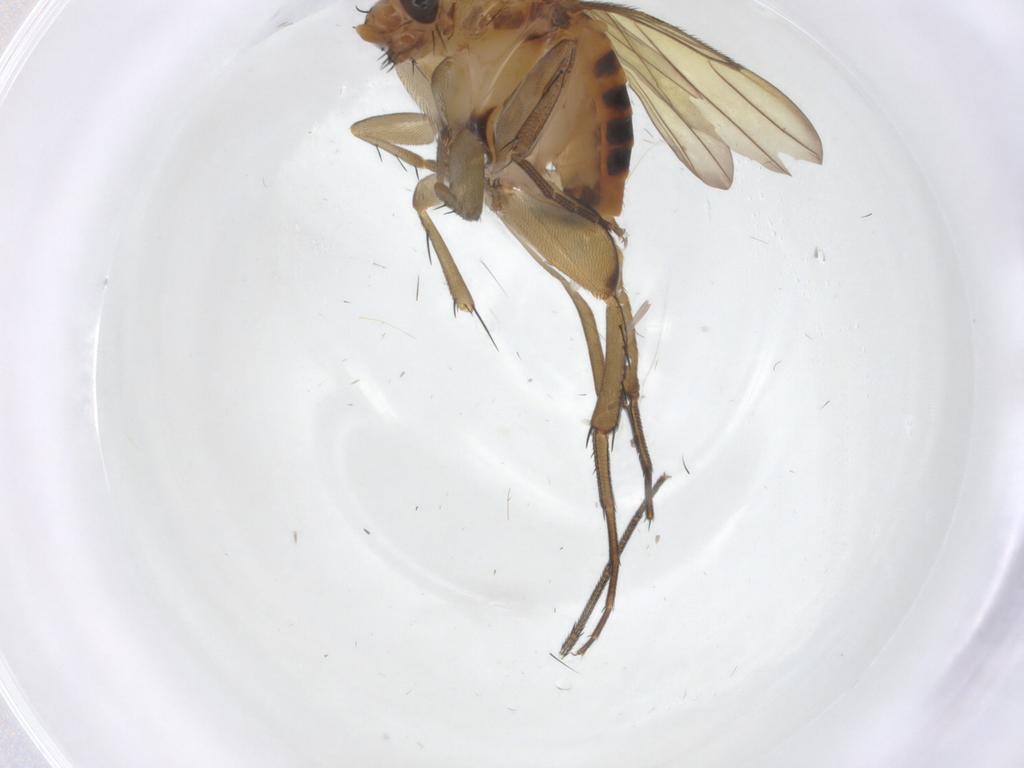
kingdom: Animalia
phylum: Arthropoda
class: Insecta
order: Diptera
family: Phoridae
